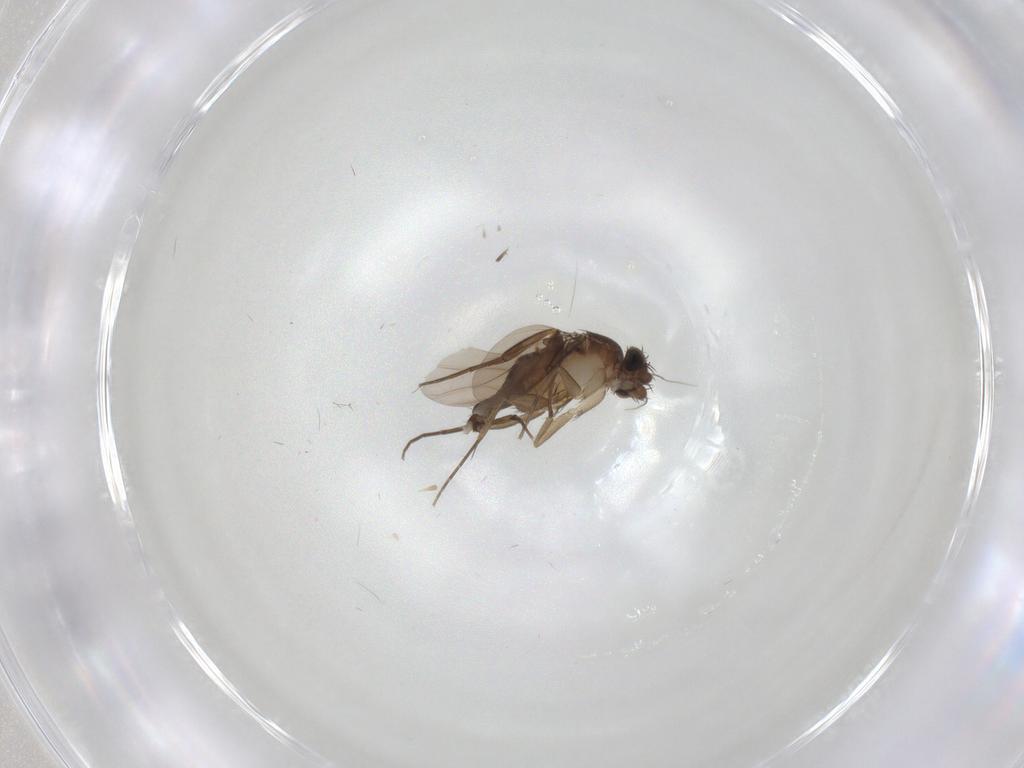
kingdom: Animalia
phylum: Arthropoda
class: Insecta
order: Diptera
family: Phoridae
